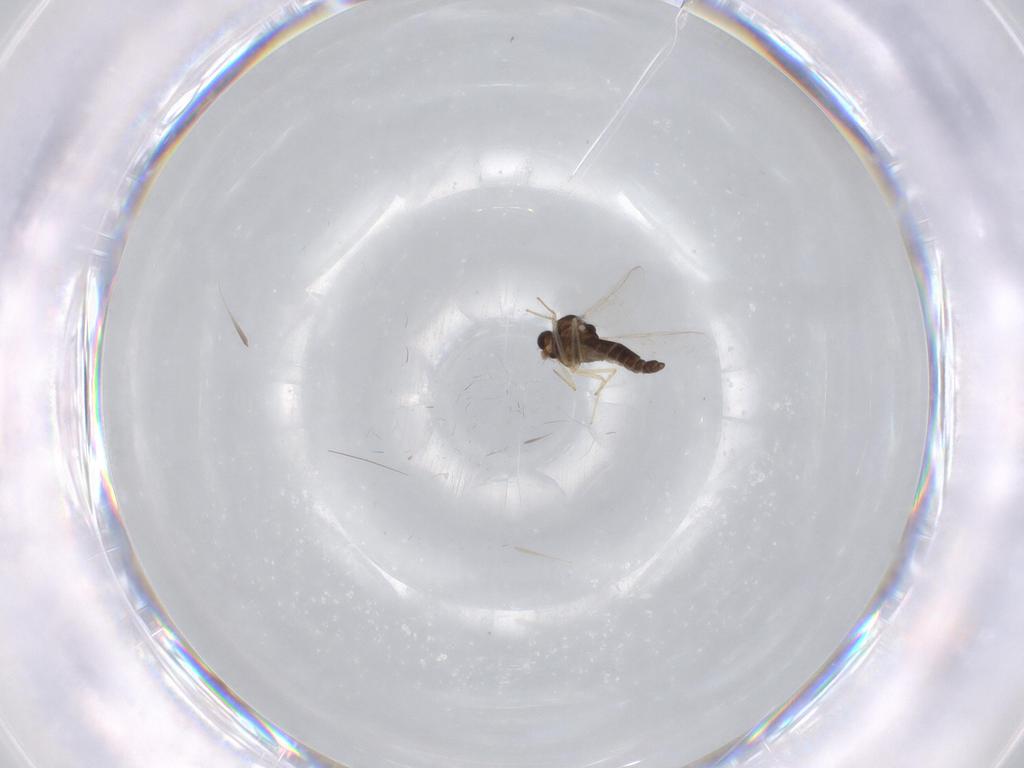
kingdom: Animalia
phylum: Arthropoda
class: Insecta
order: Diptera
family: Chironomidae
